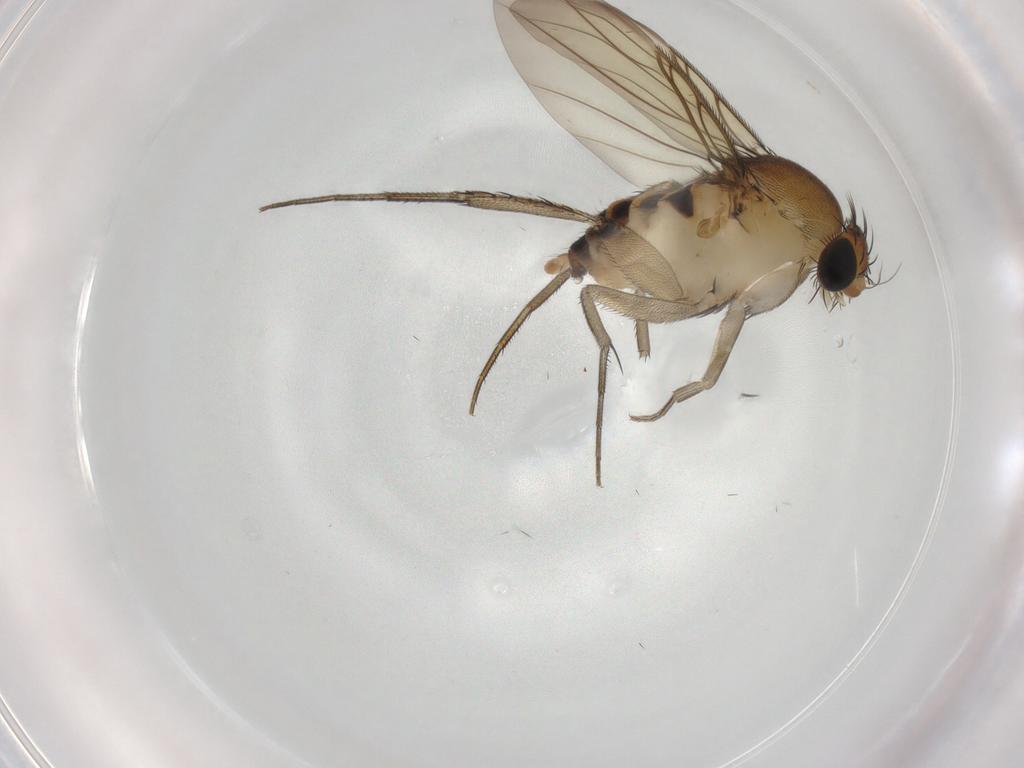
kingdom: Animalia
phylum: Arthropoda
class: Insecta
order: Diptera
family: Phoridae
